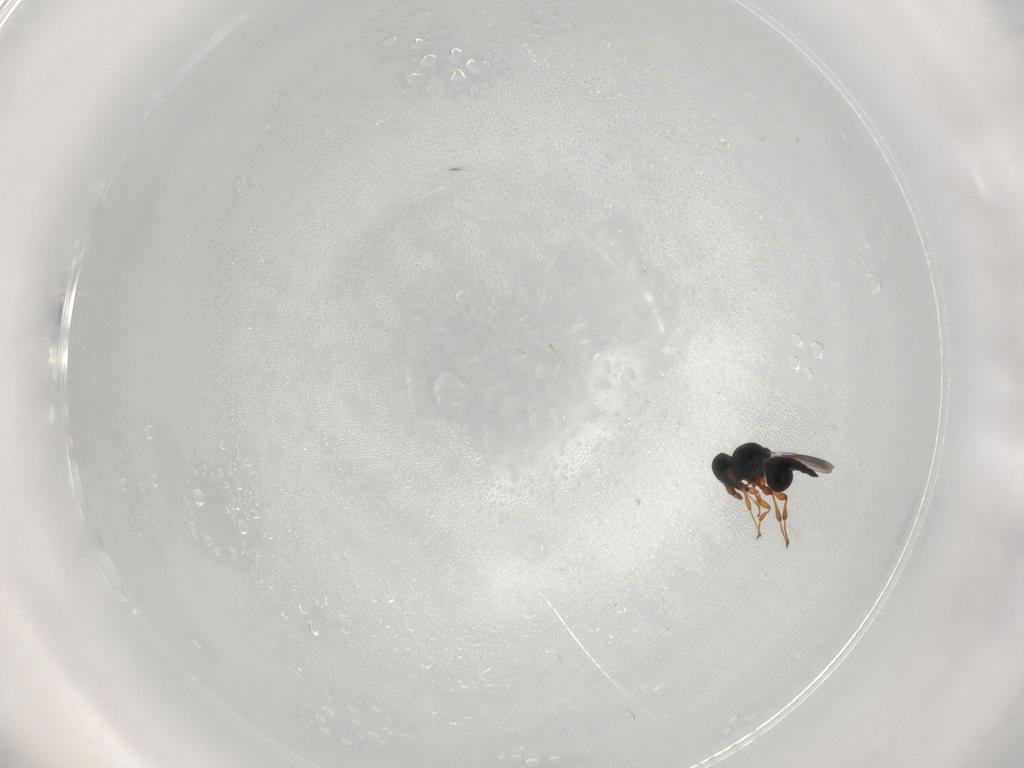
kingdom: Animalia
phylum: Arthropoda
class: Insecta
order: Hymenoptera
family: Platygastridae
